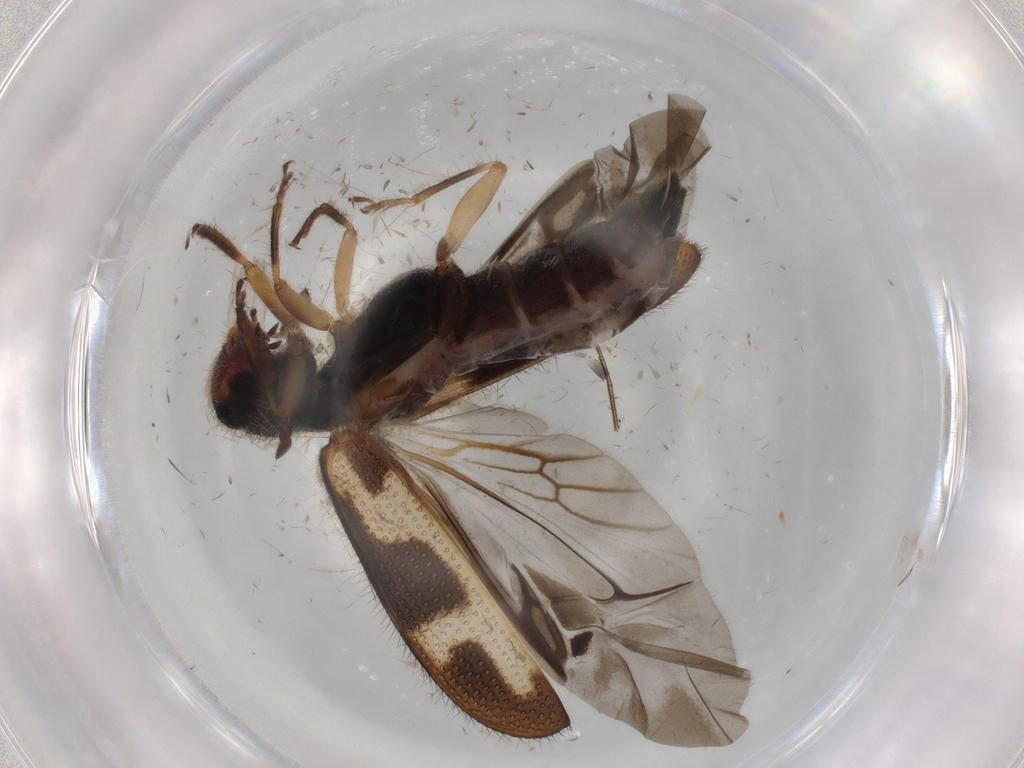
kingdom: Animalia
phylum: Arthropoda
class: Insecta
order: Coleoptera
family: Cleridae
